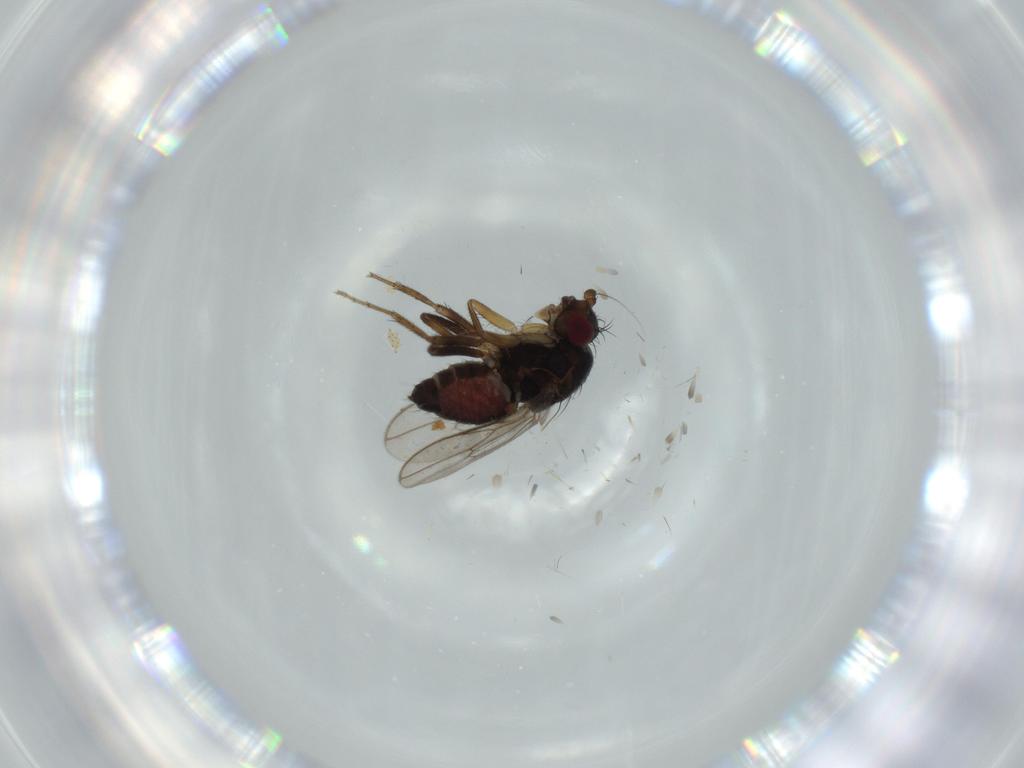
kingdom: Animalia
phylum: Arthropoda
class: Insecta
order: Diptera
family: Sphaeroceridae
